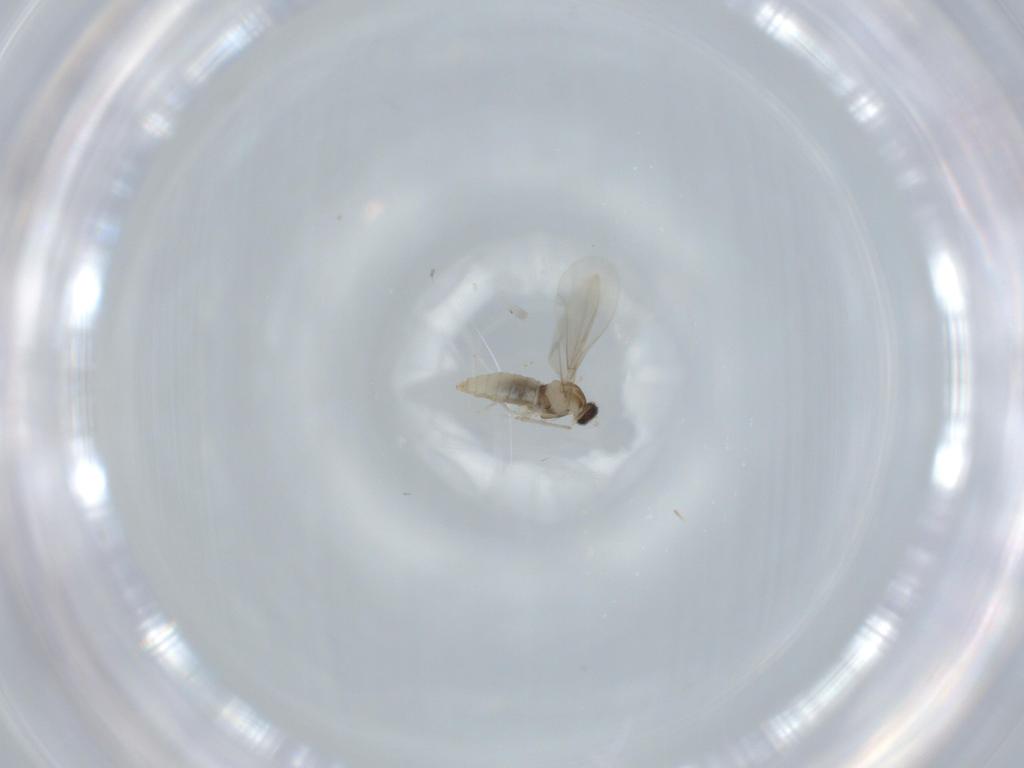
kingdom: Animalia
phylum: Arthropoda
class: Insecta
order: Diptera
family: Cecidomyiidae
